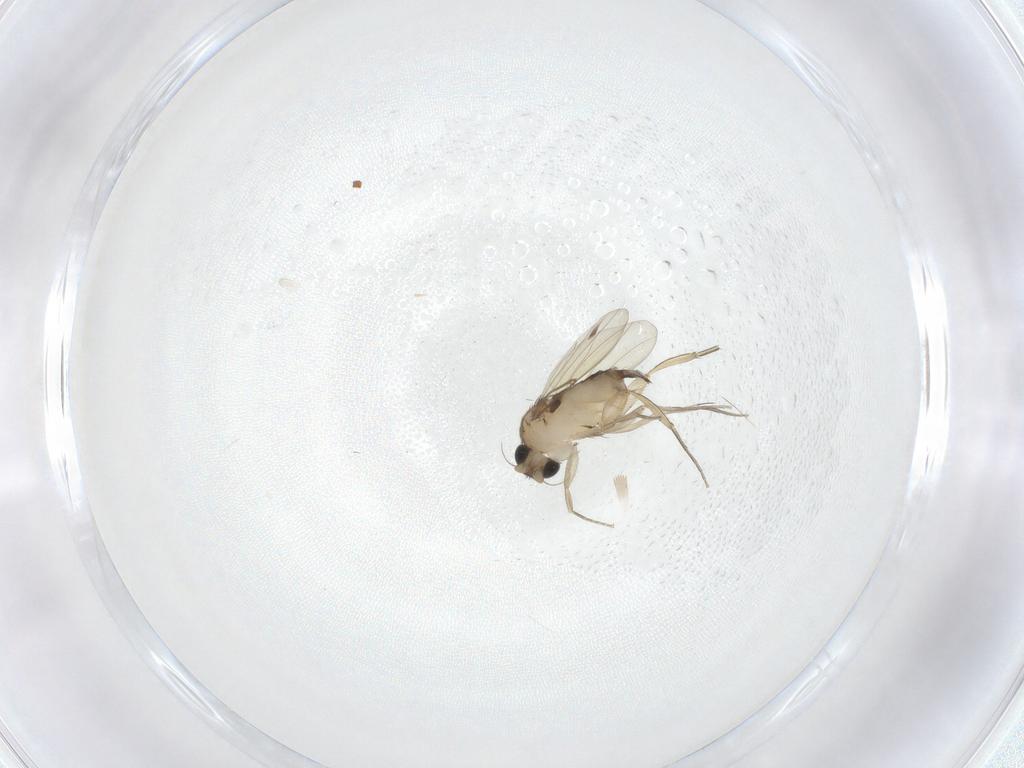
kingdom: Animalia
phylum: Arthropoda
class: Insecta
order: Diptera
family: Phoridae
